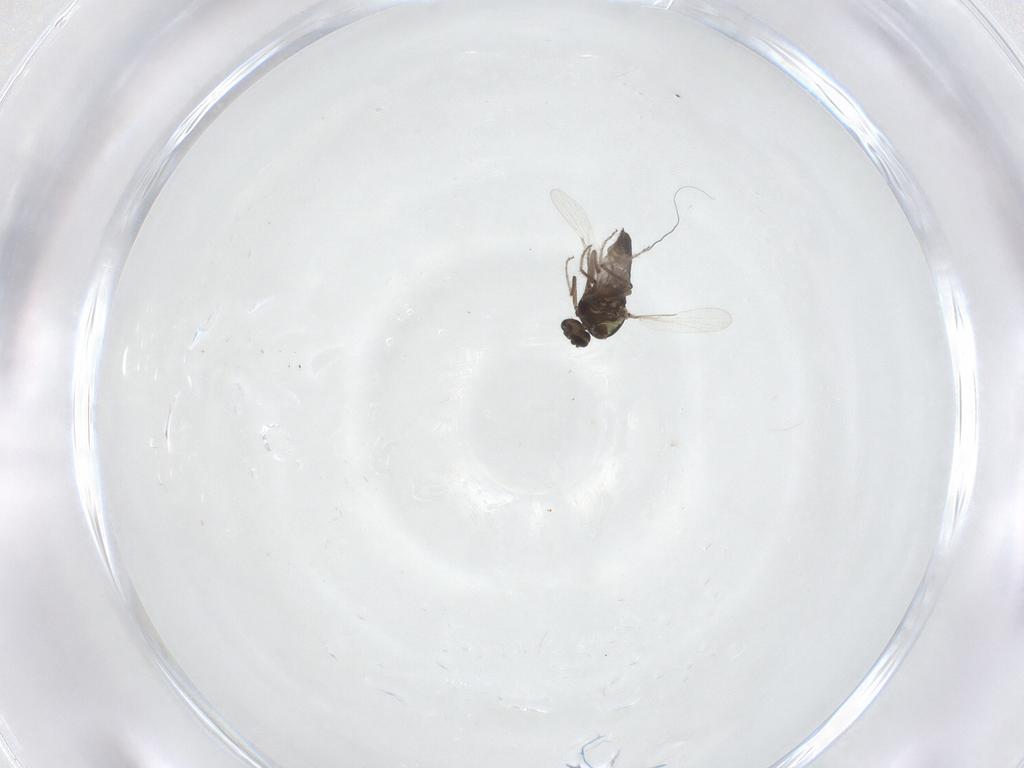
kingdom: Animalia
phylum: Arthropoda
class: Insecta
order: Diptera
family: Ceratopogonidae
